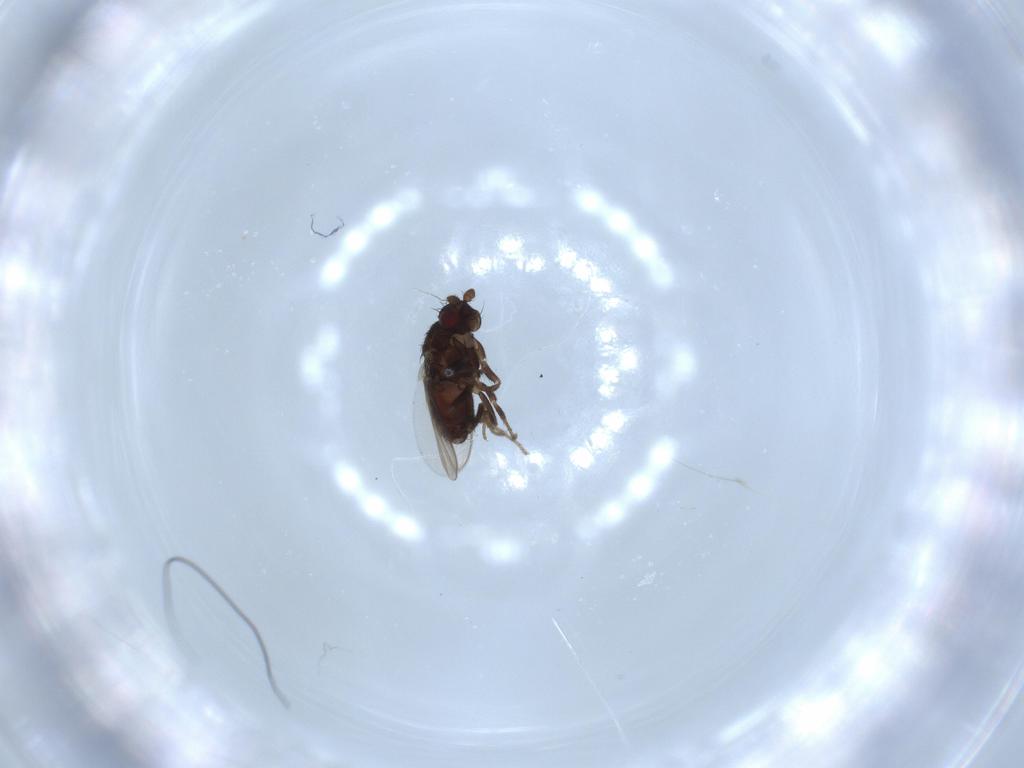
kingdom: Animalia
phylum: Arthropoda
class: Insecta
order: Diptera
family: Sphaeroceridae
